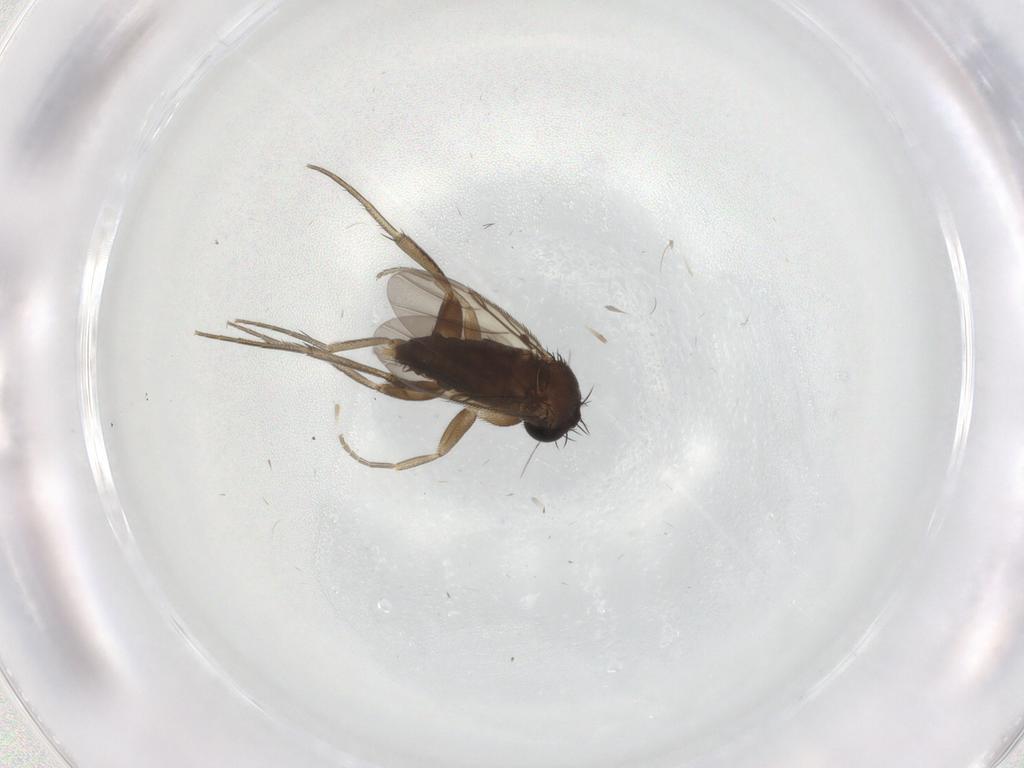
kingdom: Animalia
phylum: Arthropoda
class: Insecta
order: Diptera
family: Phoridae
